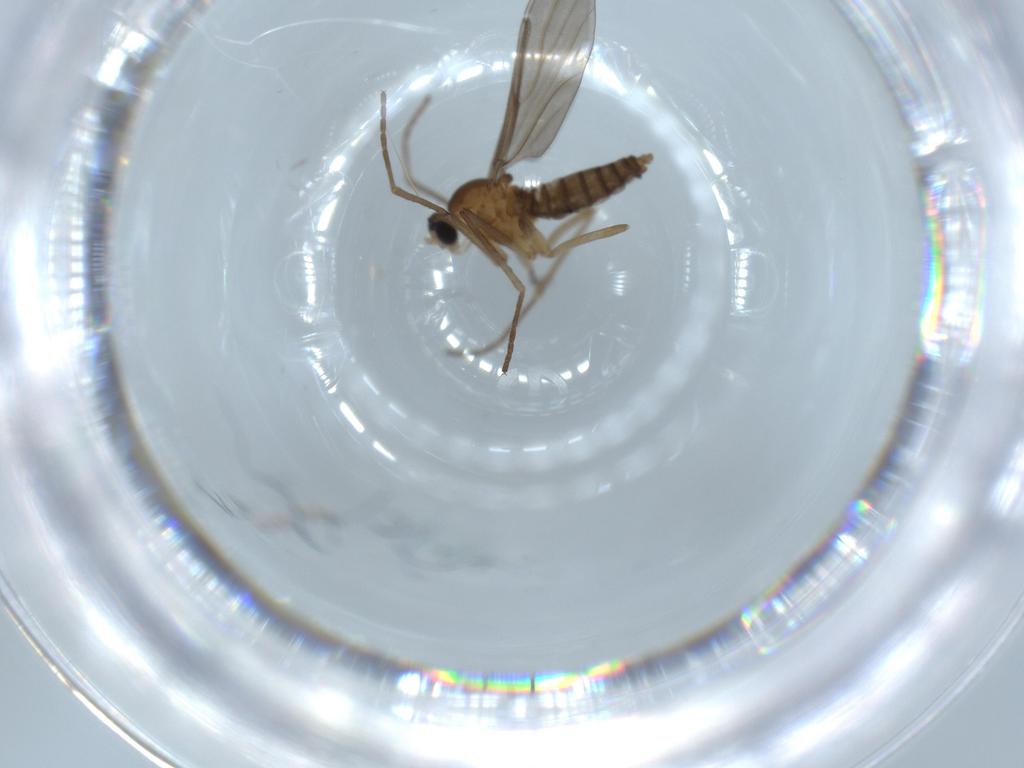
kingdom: Animalia
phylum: Arthropoda
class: Insecta
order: Diptera
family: Cecidomyiidae
